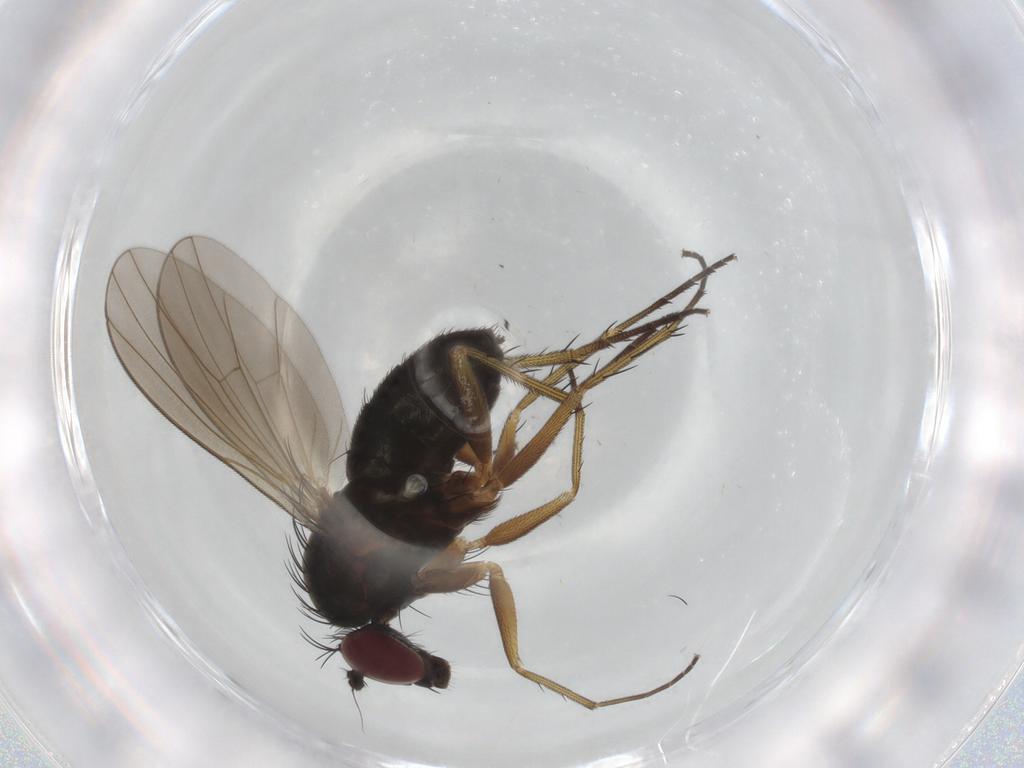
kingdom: Animalia
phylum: Arthropoda
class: Insecta
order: Diptera
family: Dolichopodidae
